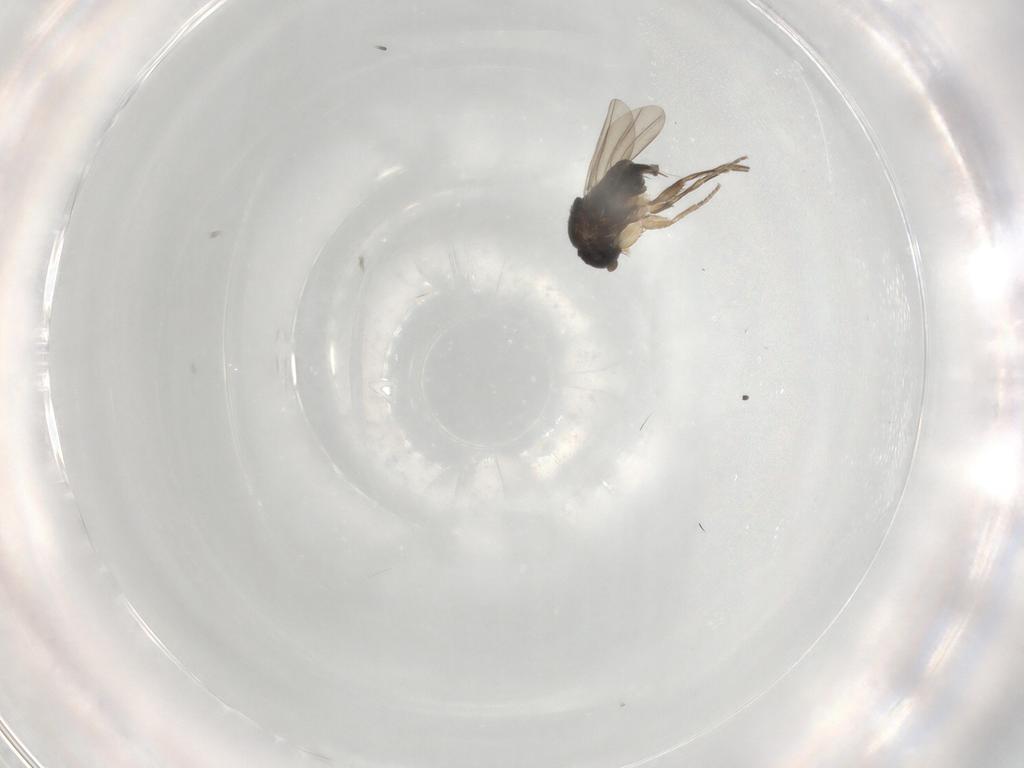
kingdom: Animalia
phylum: Arthropoda
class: Insecta
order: Diptera
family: Phoridae
